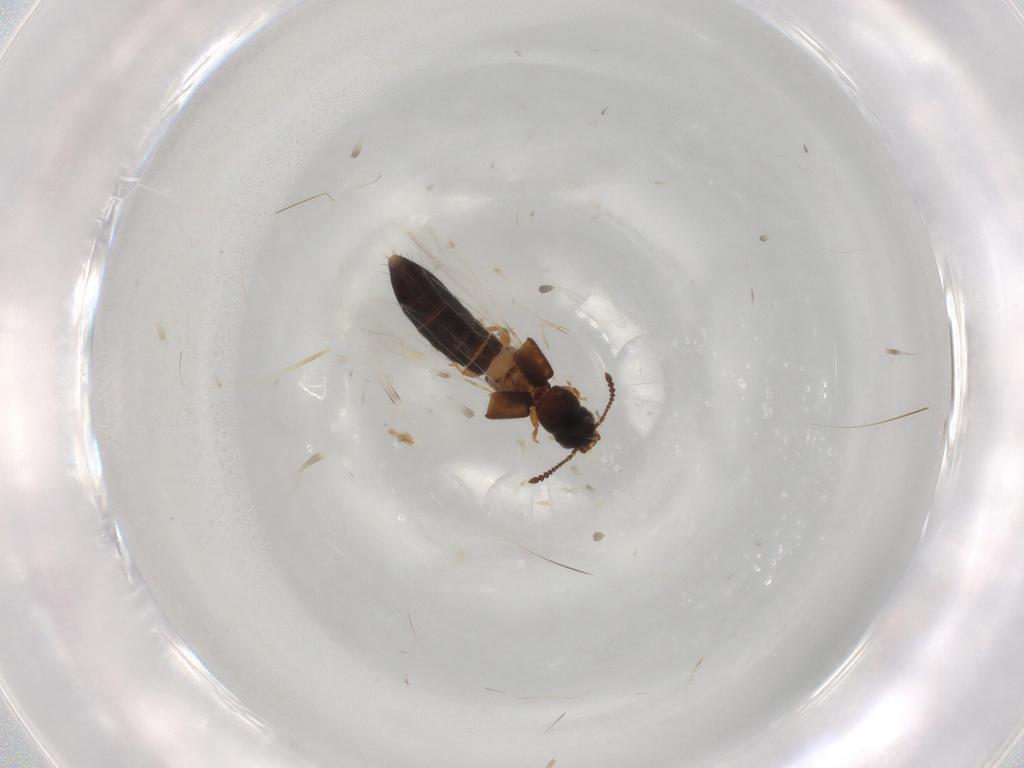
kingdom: Animalia
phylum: Arthropoda
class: Insecta
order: Coleoptera
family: Staphylinidae
